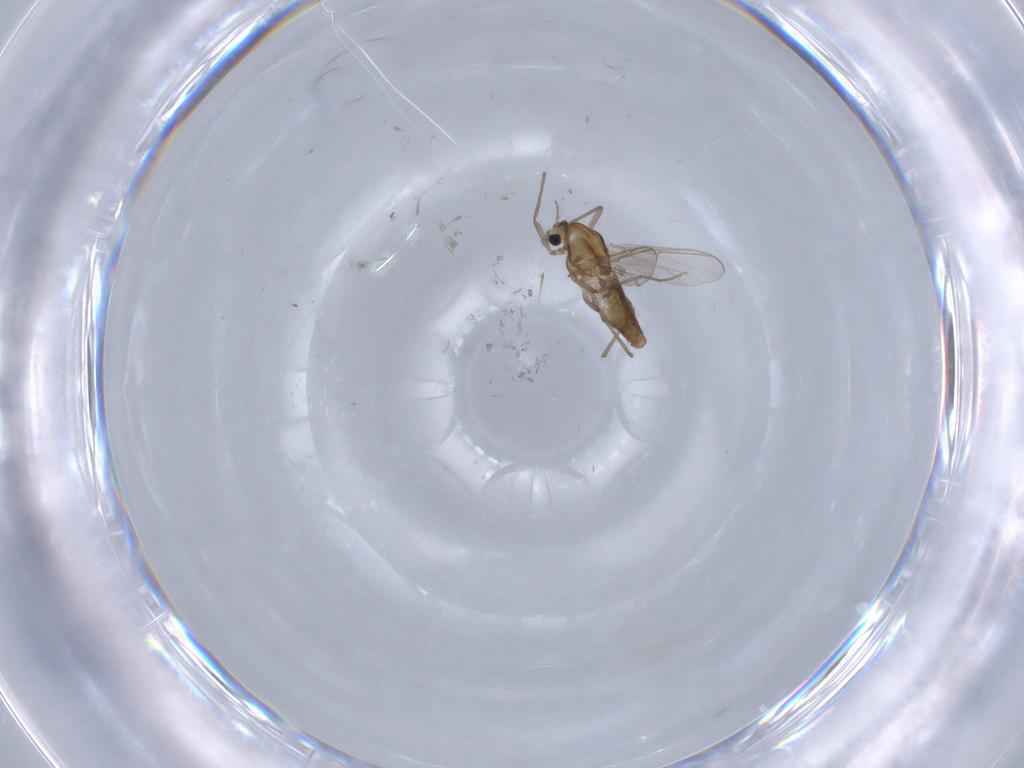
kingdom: Animalia
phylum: Arthropoda
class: Insecta
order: Diptera
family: Chironomidae
